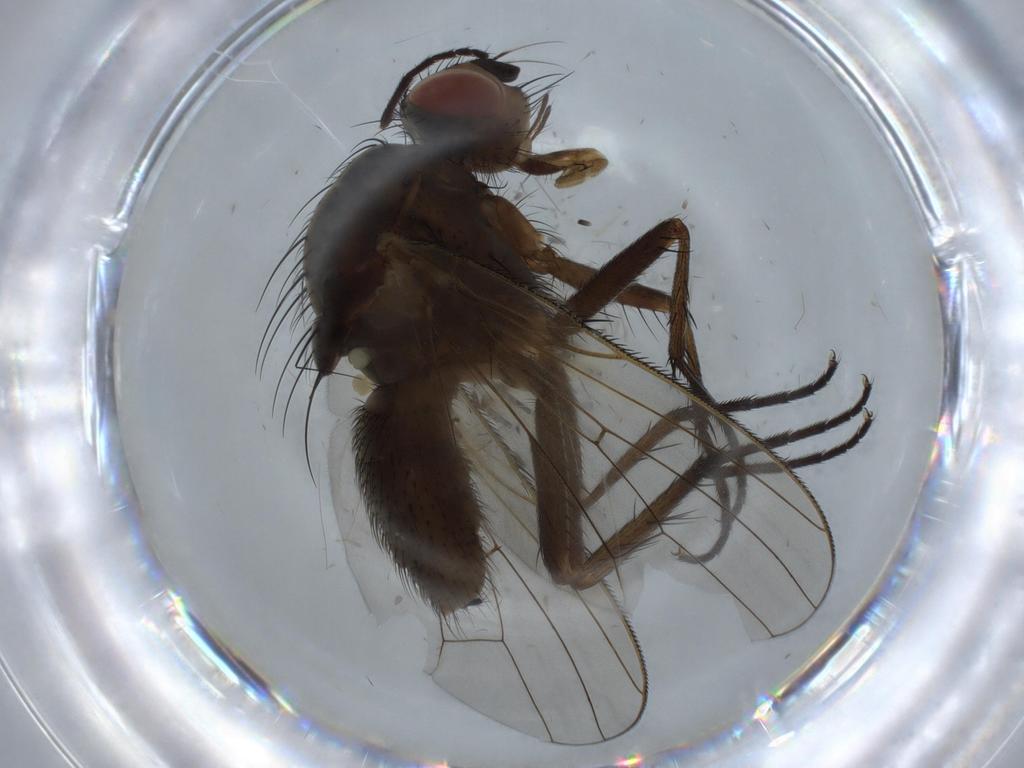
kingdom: Animalia
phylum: Arthropoda
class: Insecta
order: Diptera
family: Anthomyiidae
